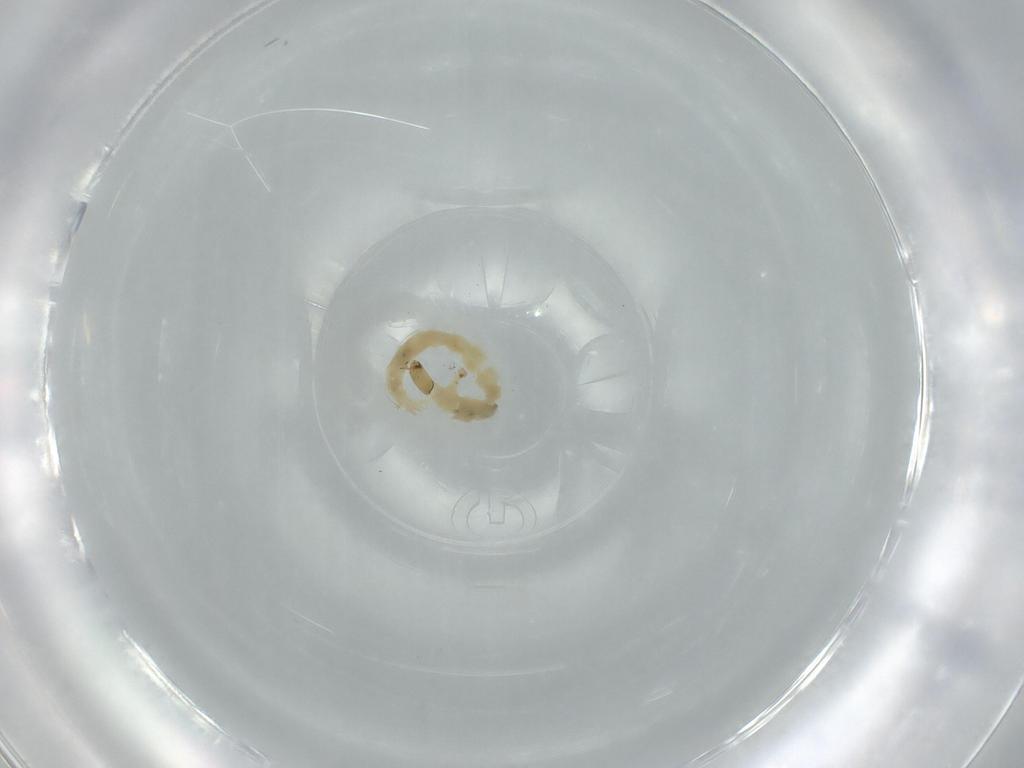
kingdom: Animalia
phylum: Arthropoda
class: Insecta
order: Diptera
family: Chironomidae
